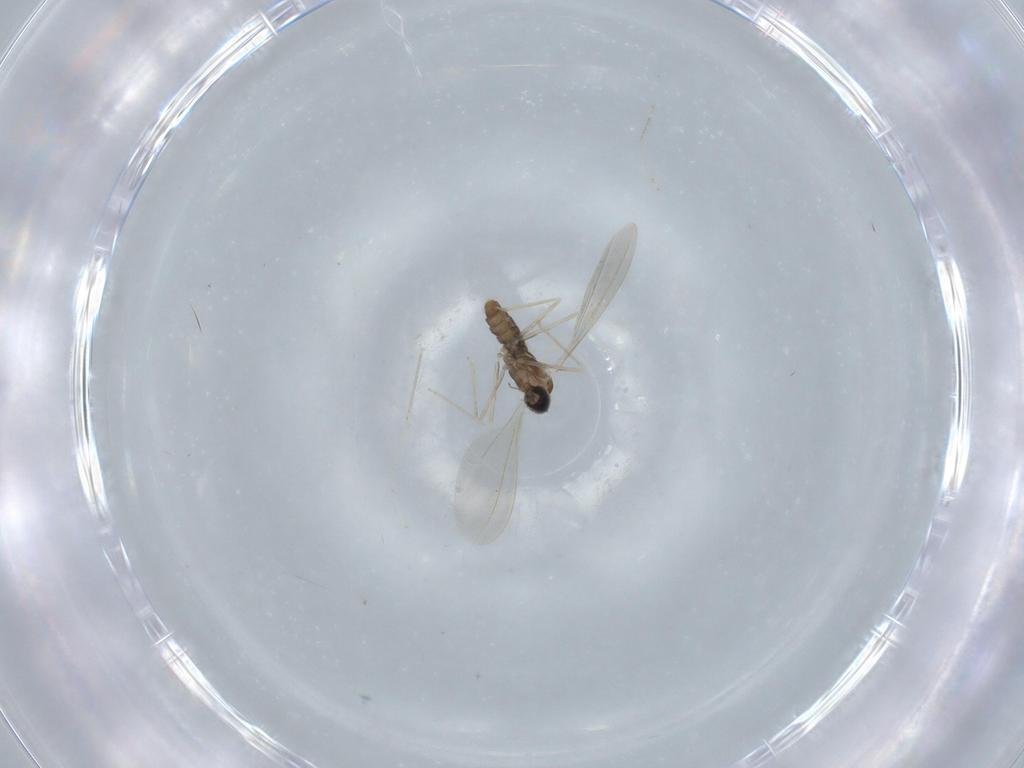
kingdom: Animalia
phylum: Arthropoda
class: Insecta
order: Diptera
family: Cecidomyiidae
